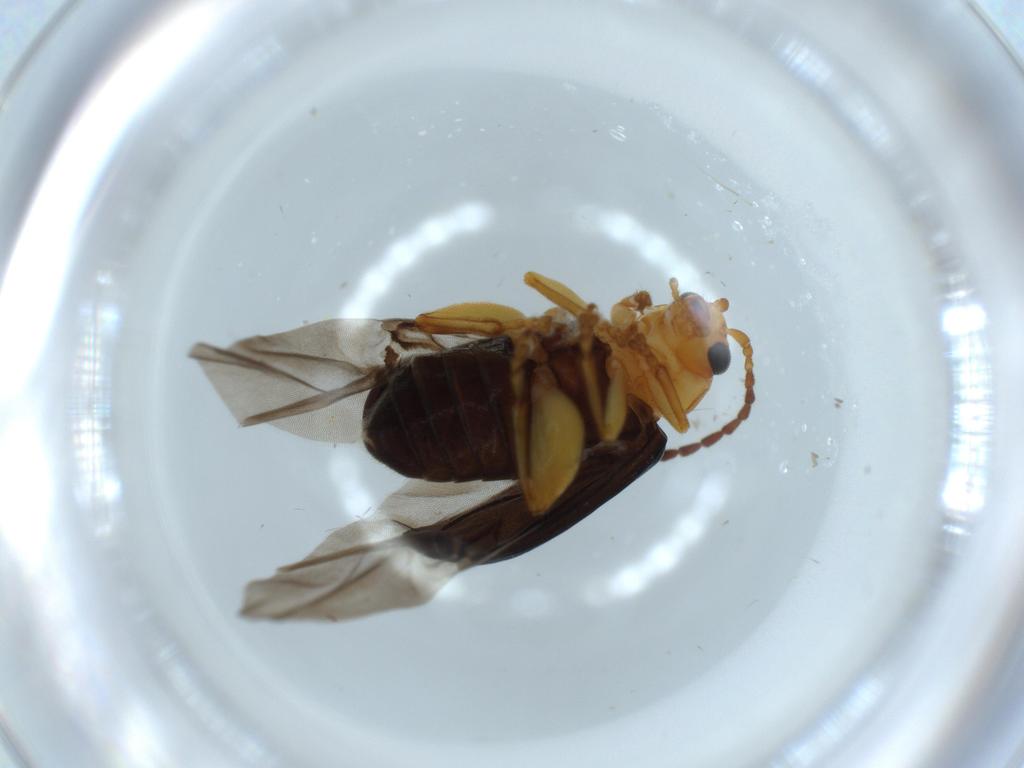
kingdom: Animalia
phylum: Arthropoda
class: Insecta
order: Coleoptera
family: Chrysomelidae
